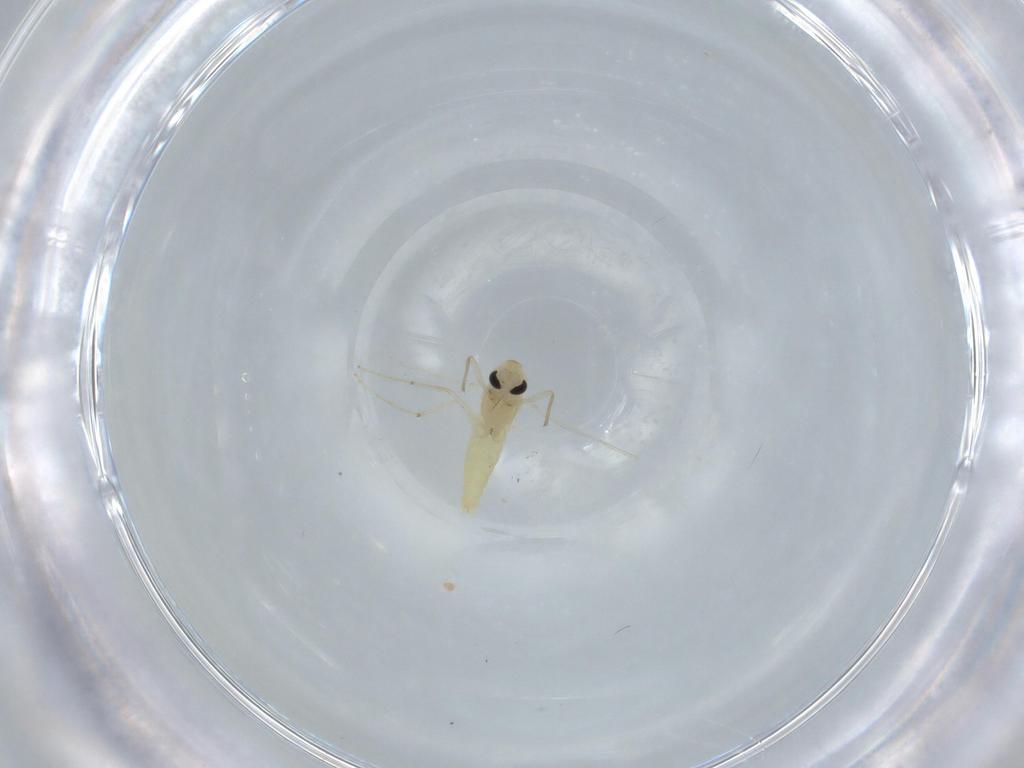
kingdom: Animalia
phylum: Arthropoda
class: Insecta
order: Diptera
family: Chironomidae
